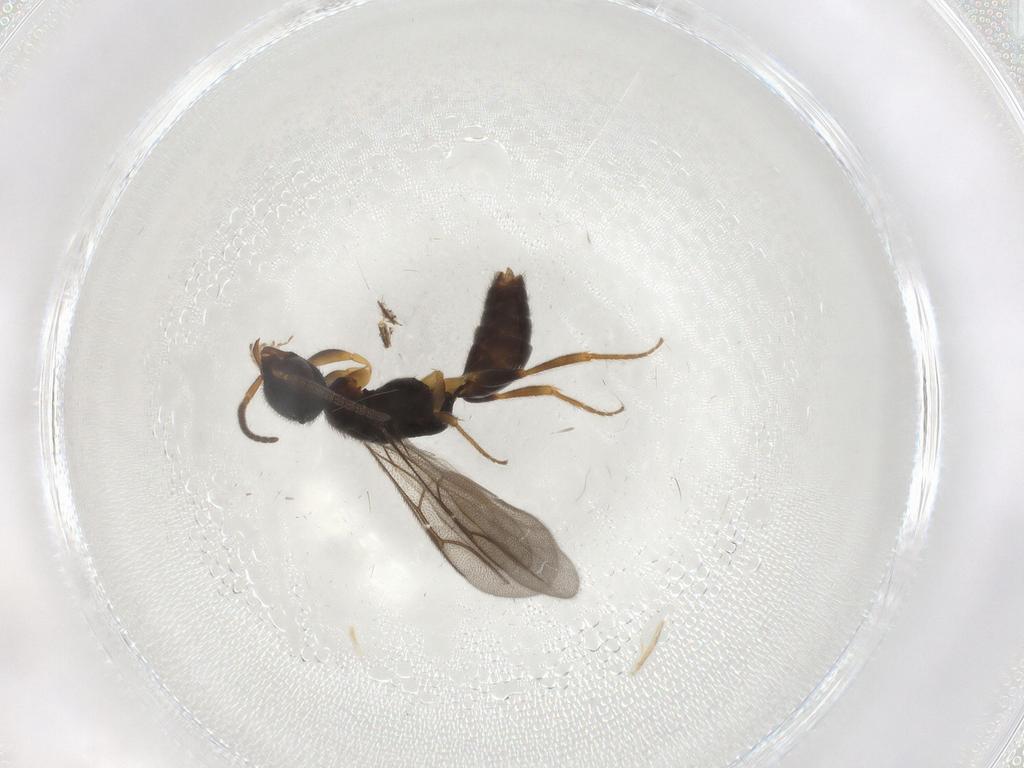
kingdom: Animalia
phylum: Arthropoda
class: Insecta
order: Hymenoptera
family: Bethylidae
